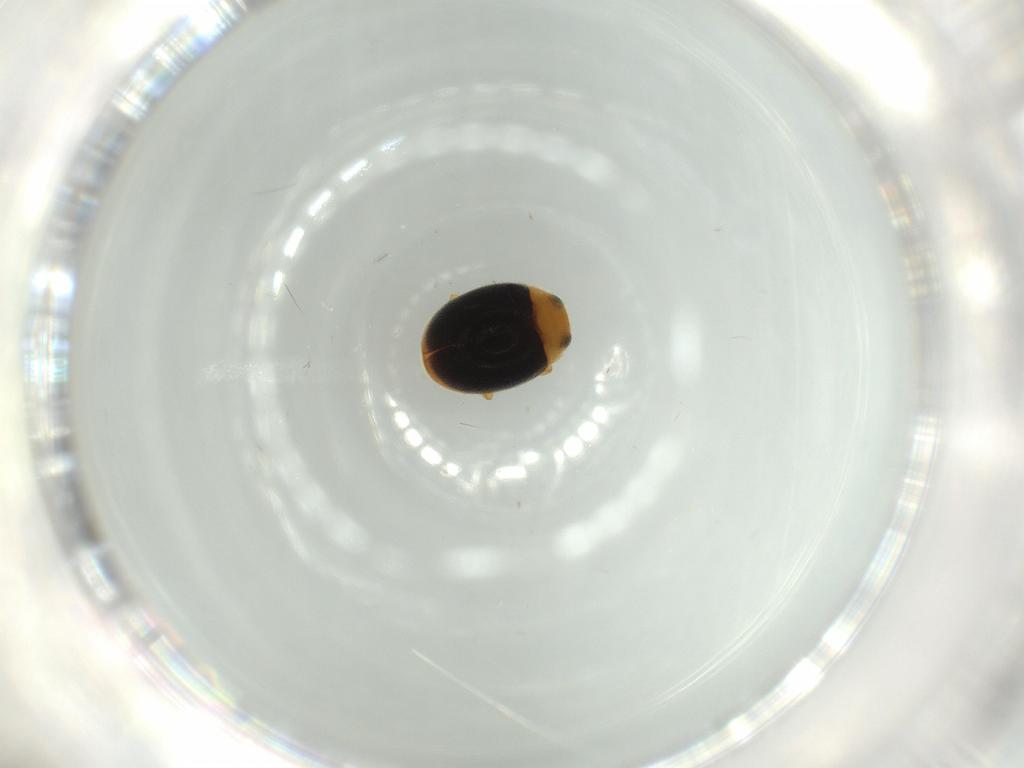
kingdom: Animalia
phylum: Arthropoda
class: Insecta
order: Coleoptera
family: Coccinellidae
